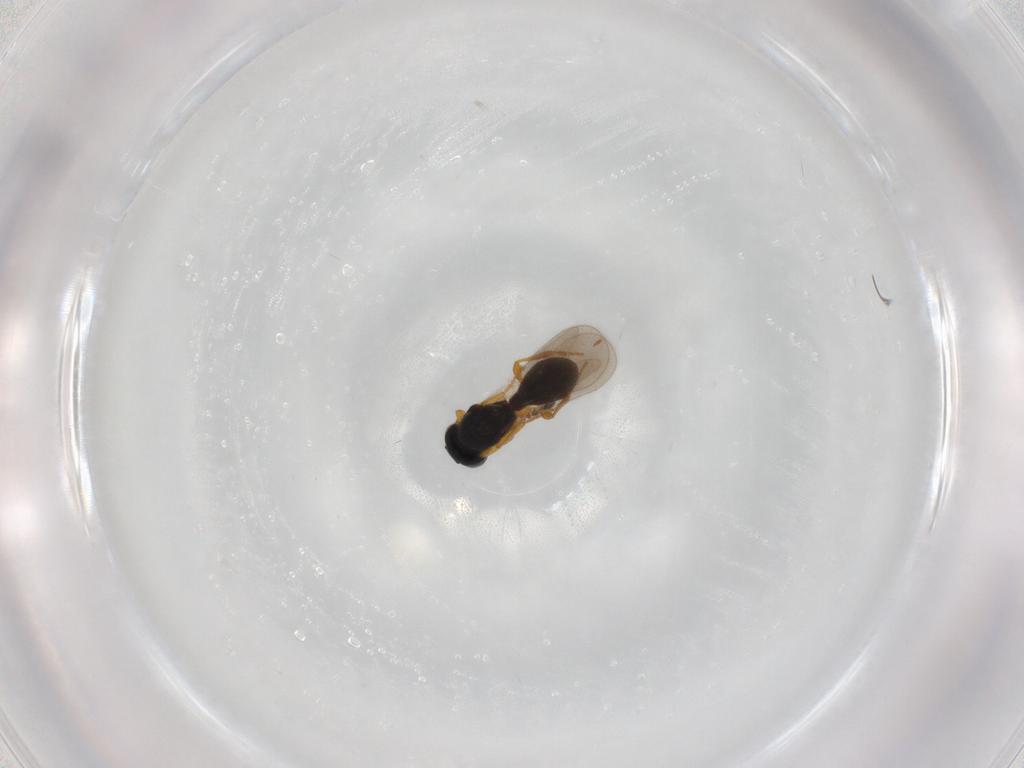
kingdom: Animalia
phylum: Arthropoda
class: Insecta
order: Hymenoptera
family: Platygastridae
